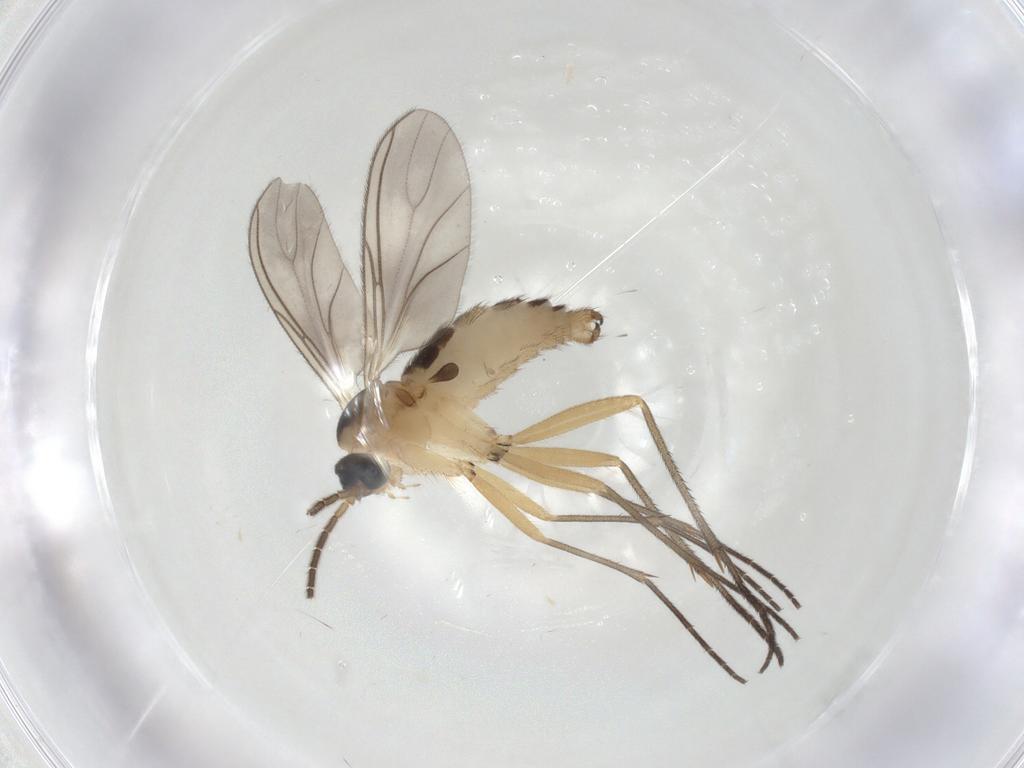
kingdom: Animalia
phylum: Arthropoda
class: Insecta
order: Diptera
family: Sciaridae
